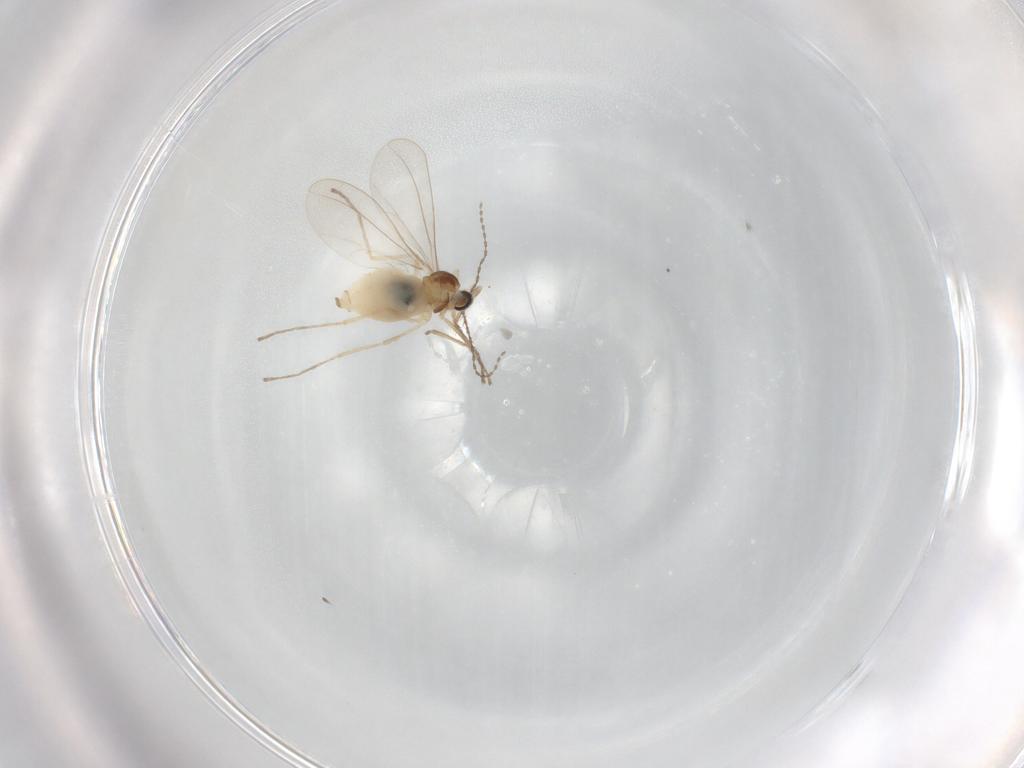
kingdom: Animalia
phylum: Arthropoda
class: Insecta
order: Diptera
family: Cecidomyiidae
